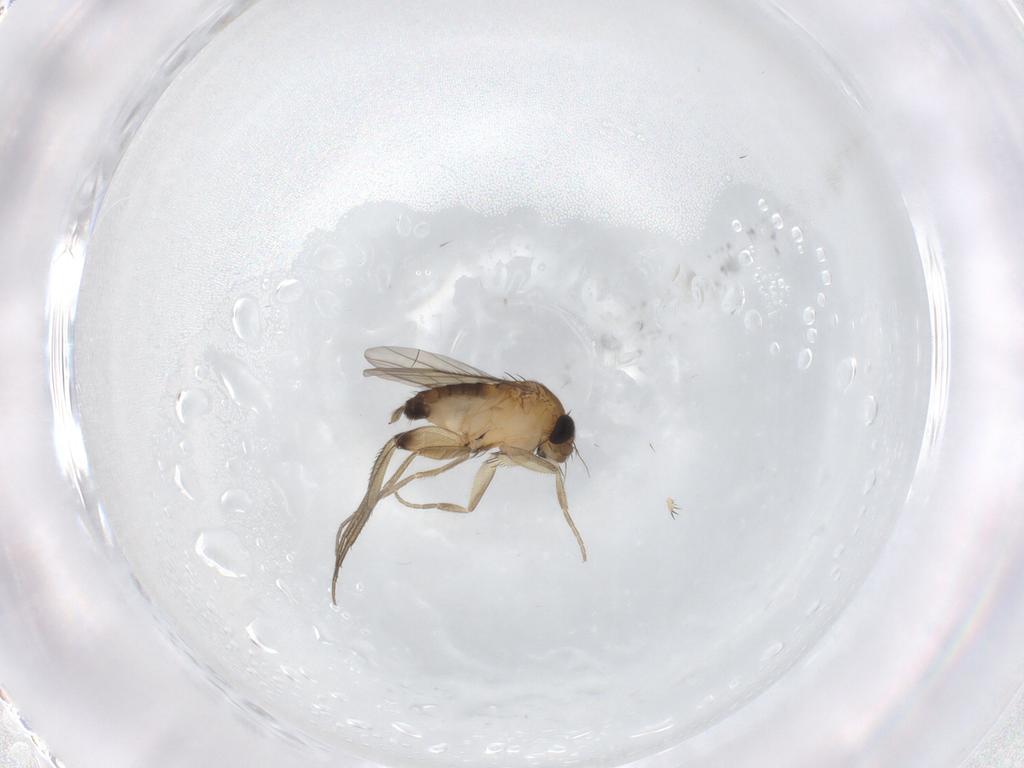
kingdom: Animalia
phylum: Arthropoda
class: Insecta
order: Diptera
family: Phoridae
